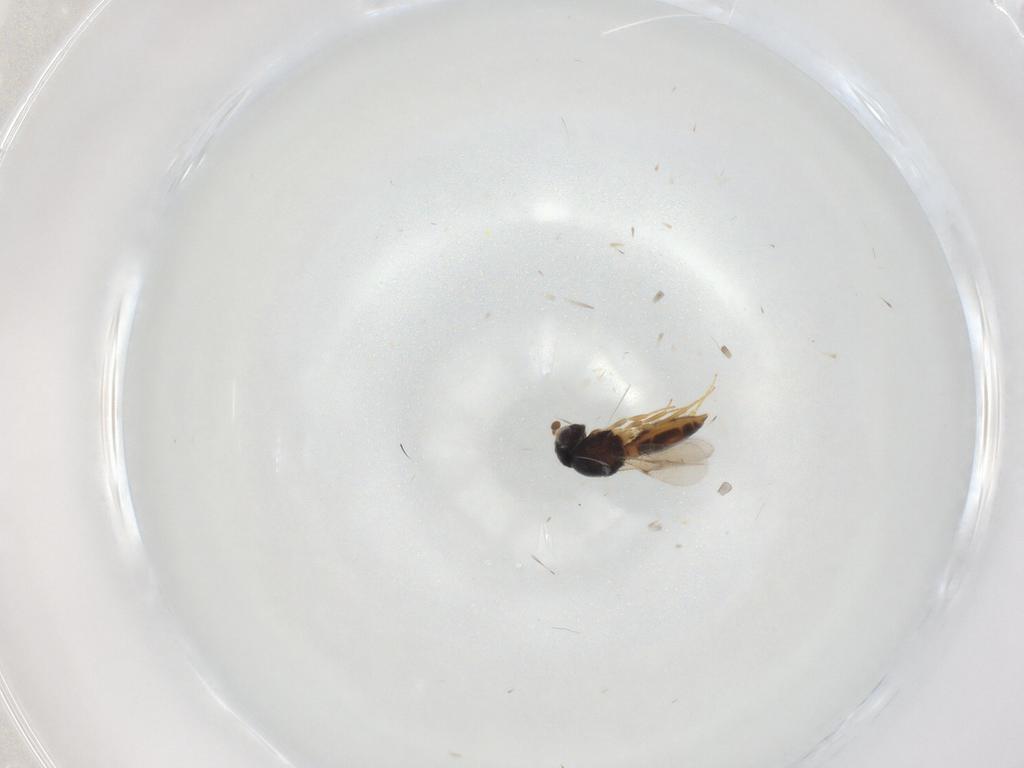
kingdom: Animalia
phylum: Arthropoda
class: Insecta
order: Hymenoptera
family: Scelionidae
